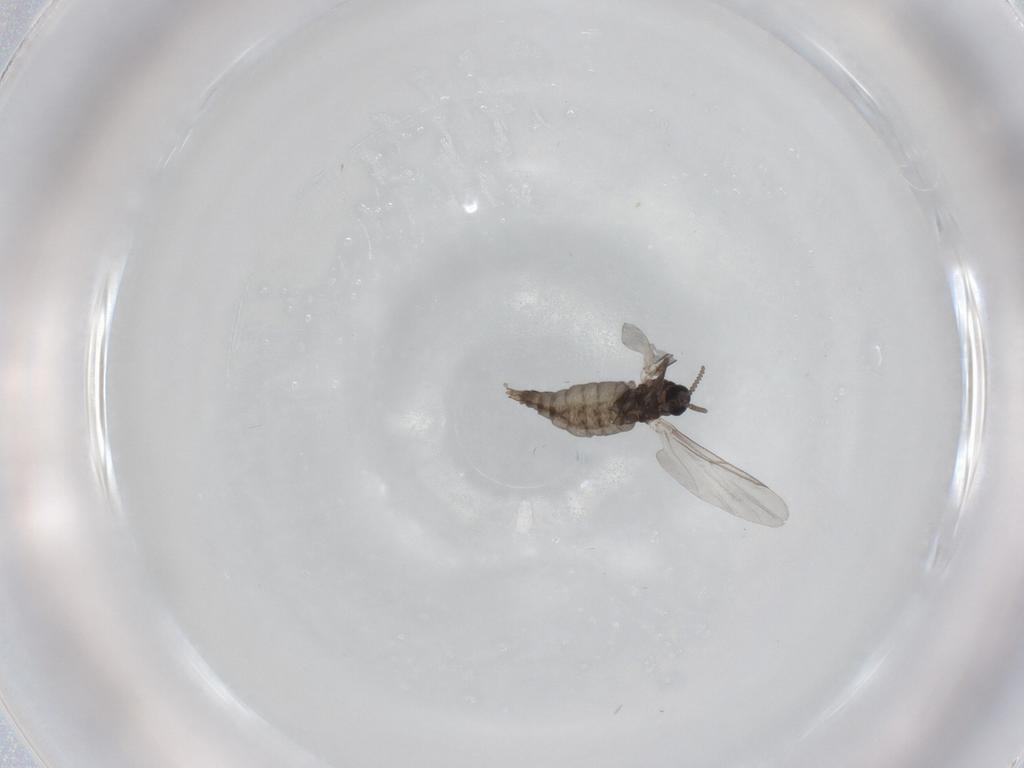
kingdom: Animalia
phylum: Arthropoda
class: Insecta
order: Diptera
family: Cecidomyiidae
